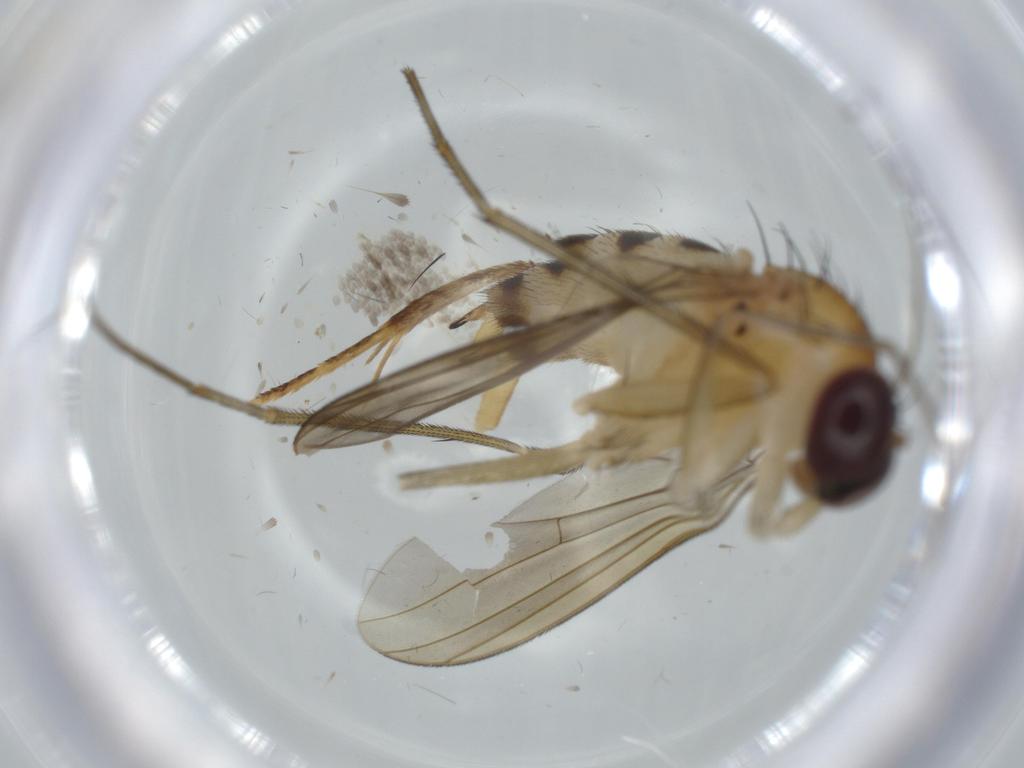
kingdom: Animalia
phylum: Arthropoda
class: Insecta
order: Diptera
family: Dolichopodidae
